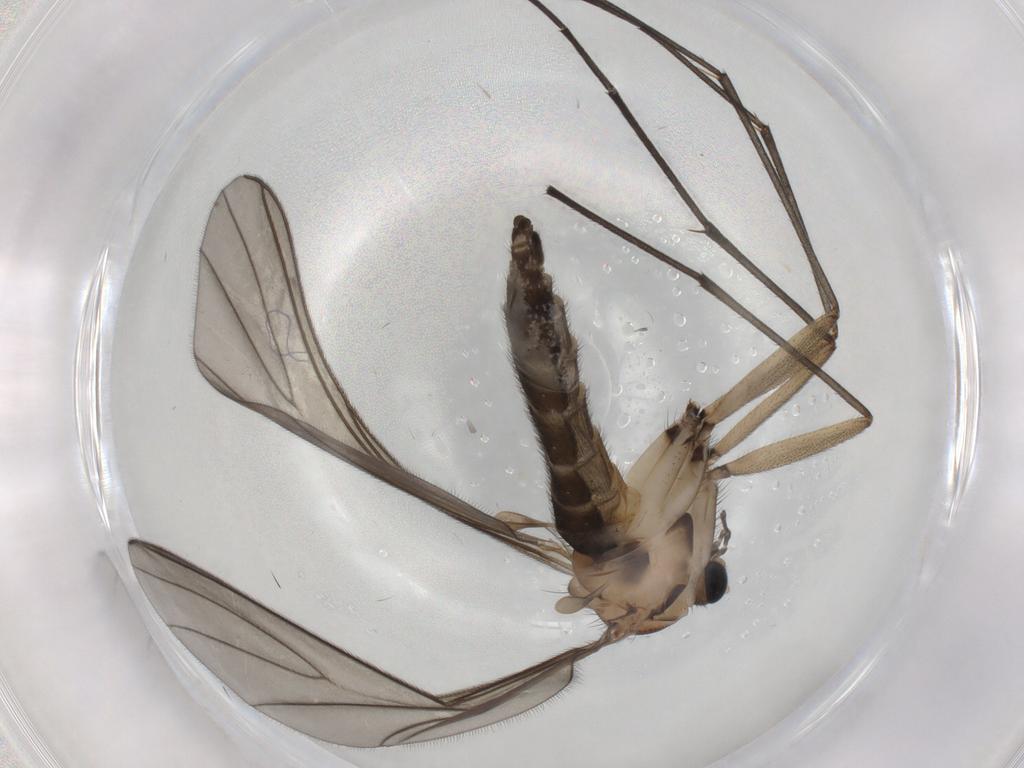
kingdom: Animalia
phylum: Arthropoda
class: Insecta
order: Diptera
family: Sciaridae
